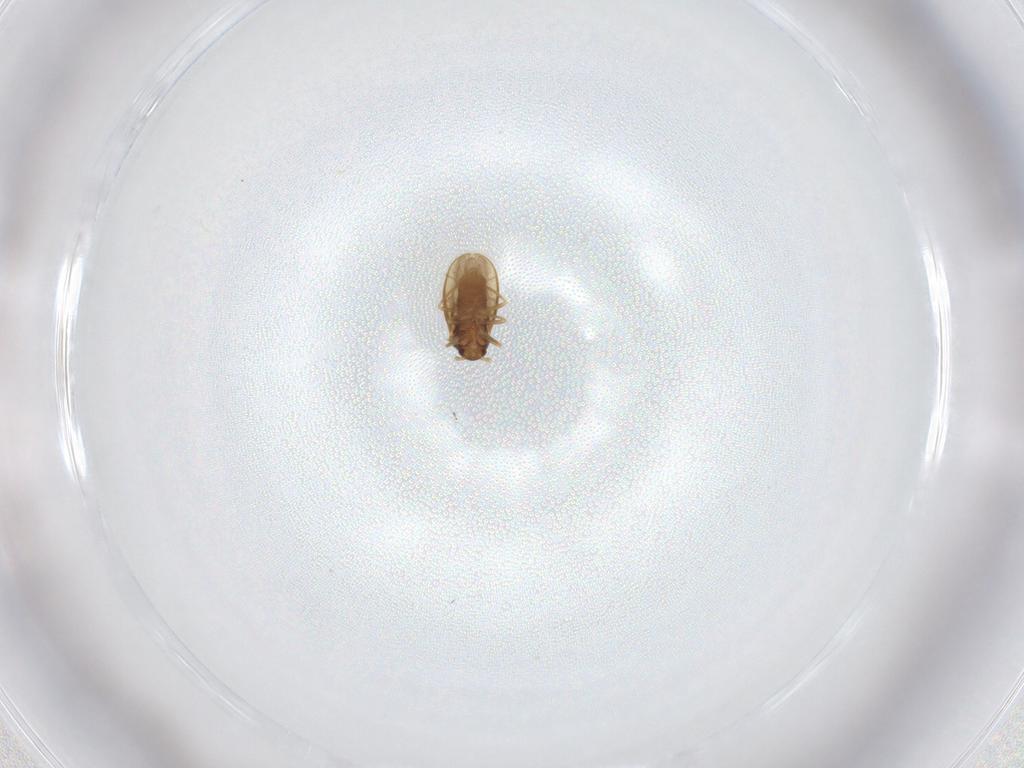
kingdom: Animalia
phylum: Arthropoda
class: Insecta
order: Hemiptera
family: Schizopteridae
